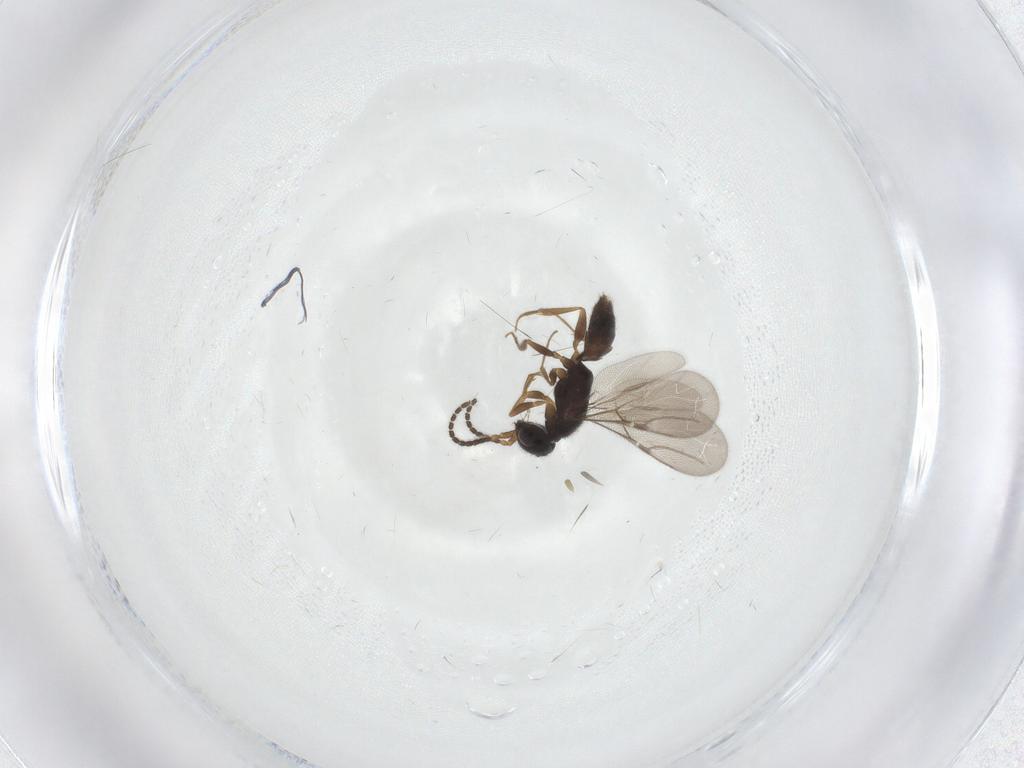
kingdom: Animalia
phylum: Arthropoda
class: Insecta
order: Hymenoptera
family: Bethylidae
